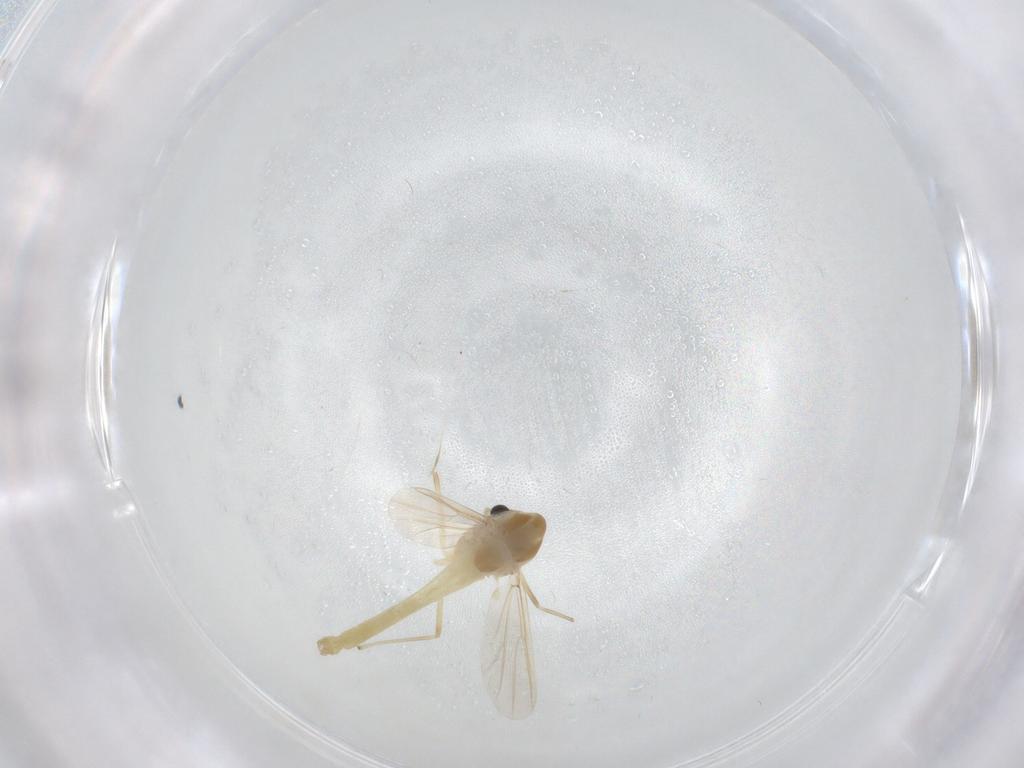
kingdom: Animalia
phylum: Arthropoda
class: Insecta
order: Diptera
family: Chironomidae
